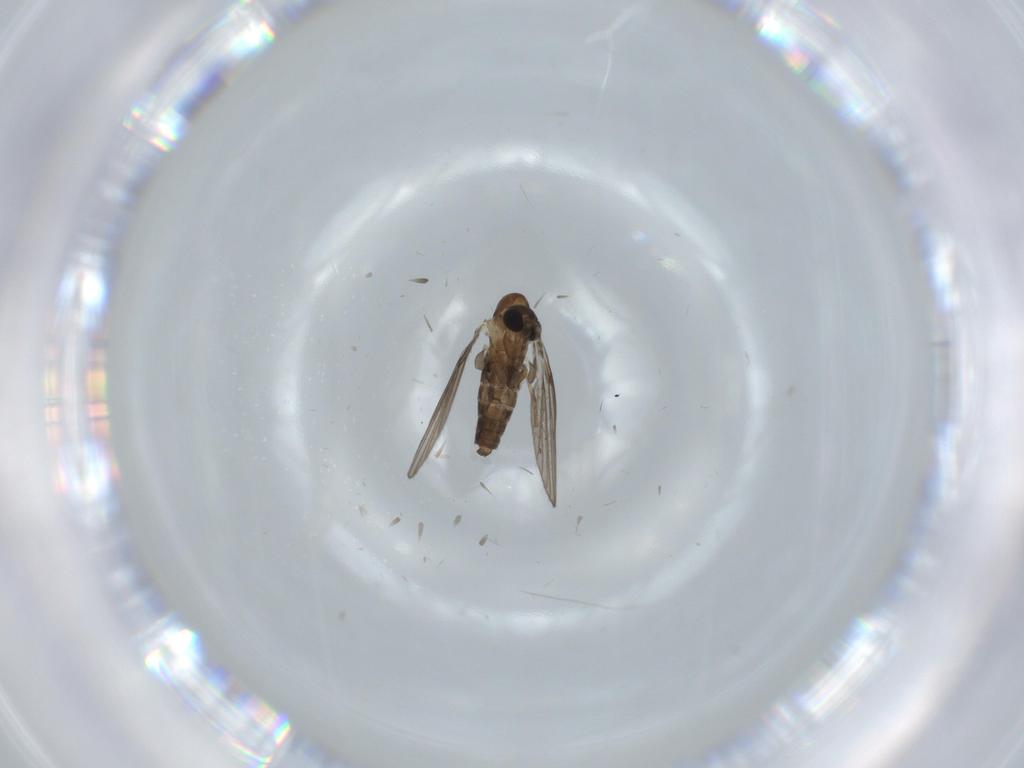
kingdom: Animalia
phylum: Arthropoda
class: Insecta
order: Diptera
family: Psychodidae
